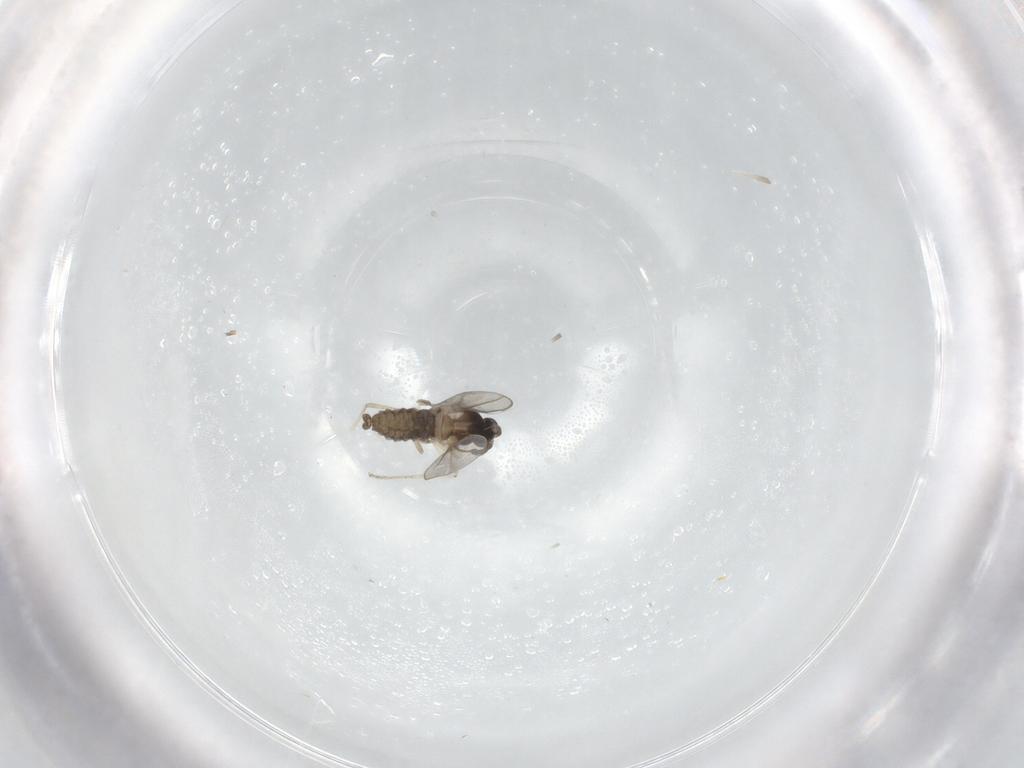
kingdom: Animalia
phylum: Arthropoda
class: Insecta
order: Diptera
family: Cecidomyiidae
